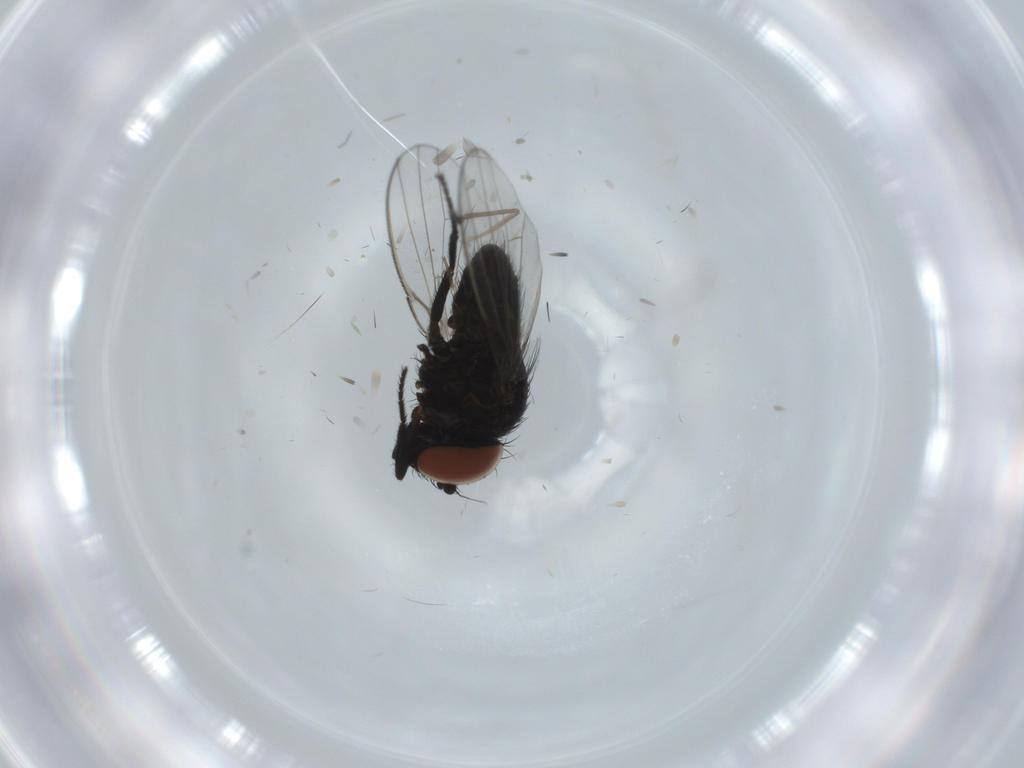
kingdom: Animalia
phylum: Arthropoda
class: Insecta
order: Diptera
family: Milichiidae
